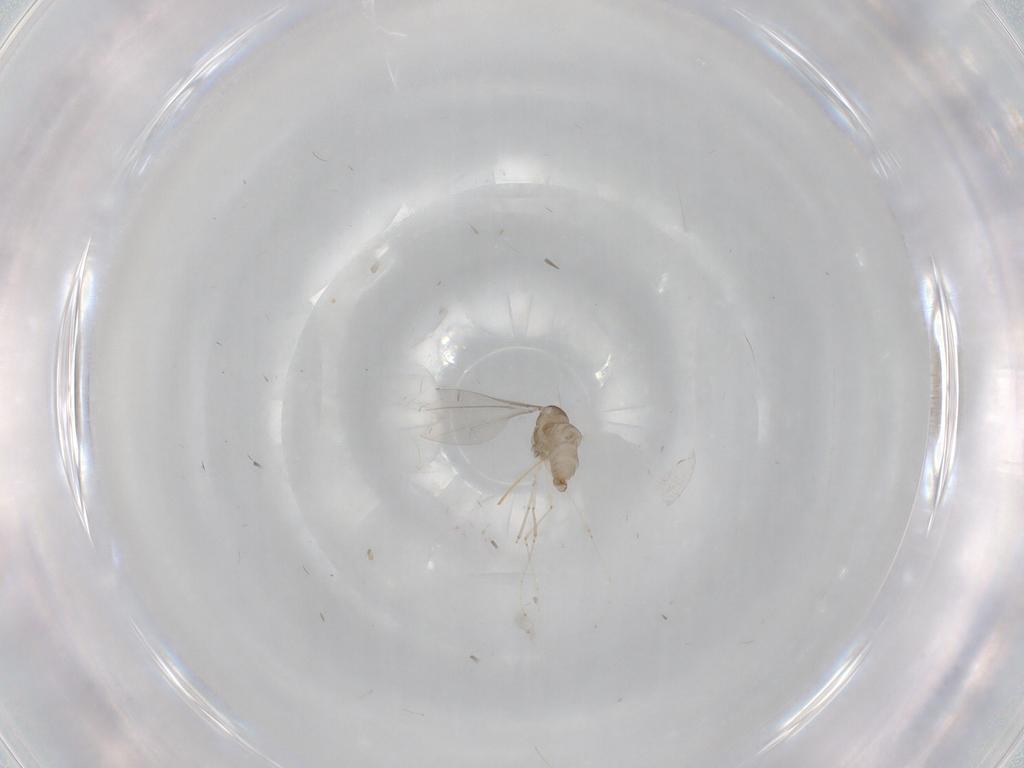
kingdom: Animalia
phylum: Arthropoda
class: Insecta
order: Diptera
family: Cecidomyiidae
